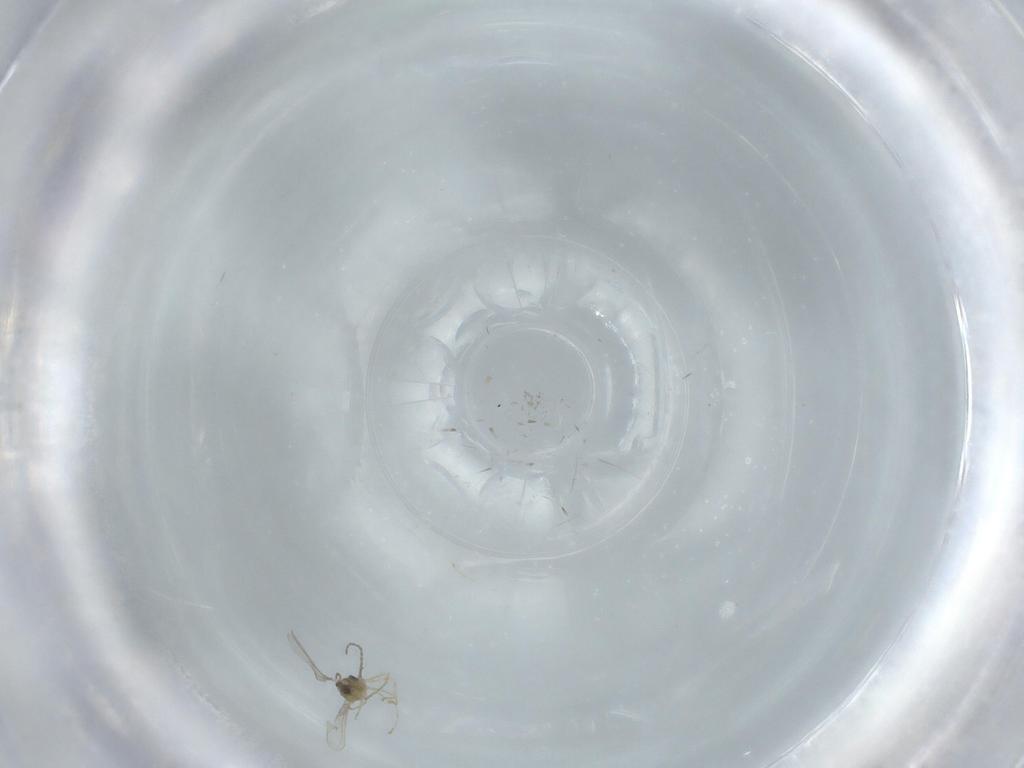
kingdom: Animalia
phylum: Arthropoda
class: Insecta
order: Diptera
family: Cecidomyiidae
